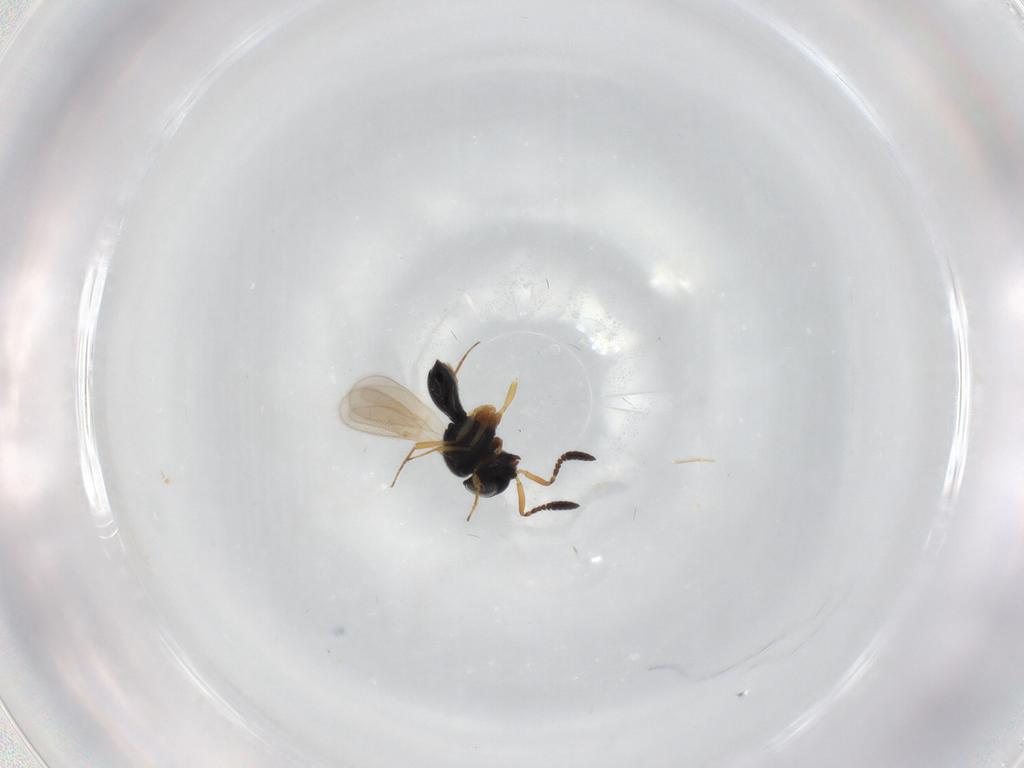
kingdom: Animalia
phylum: Arthropoda
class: Insecta
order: Hymenoptera
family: Scelionidae
